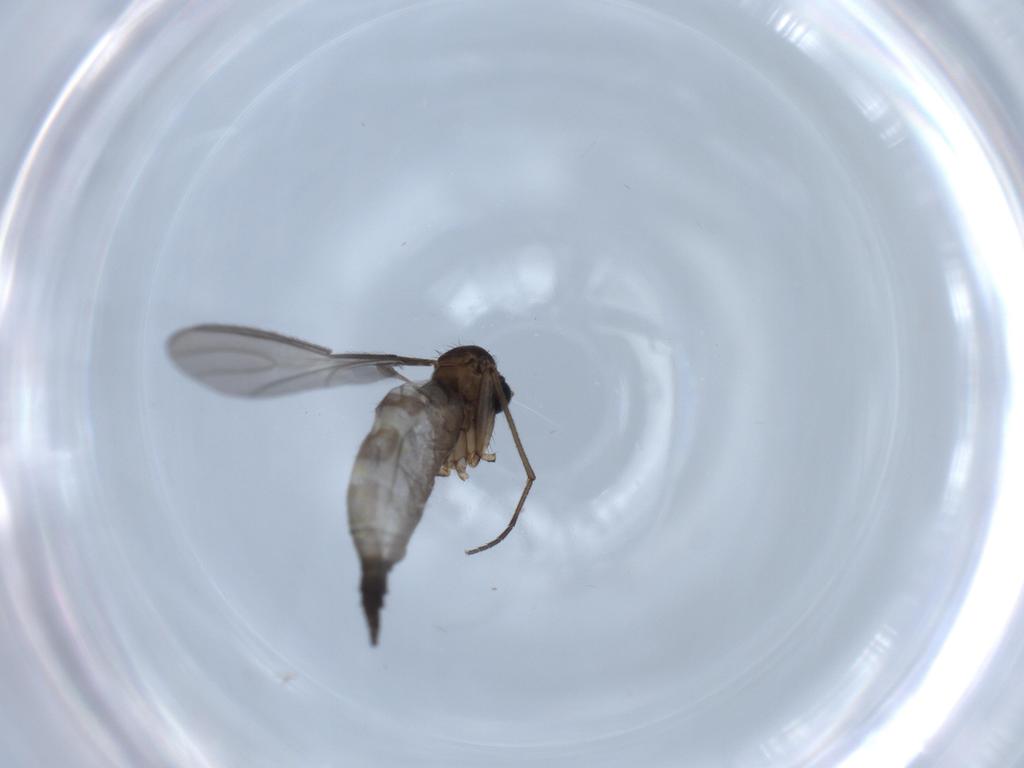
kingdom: Animalia
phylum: Arthropoda
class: Insecta
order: Diptera
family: Sciaridae
